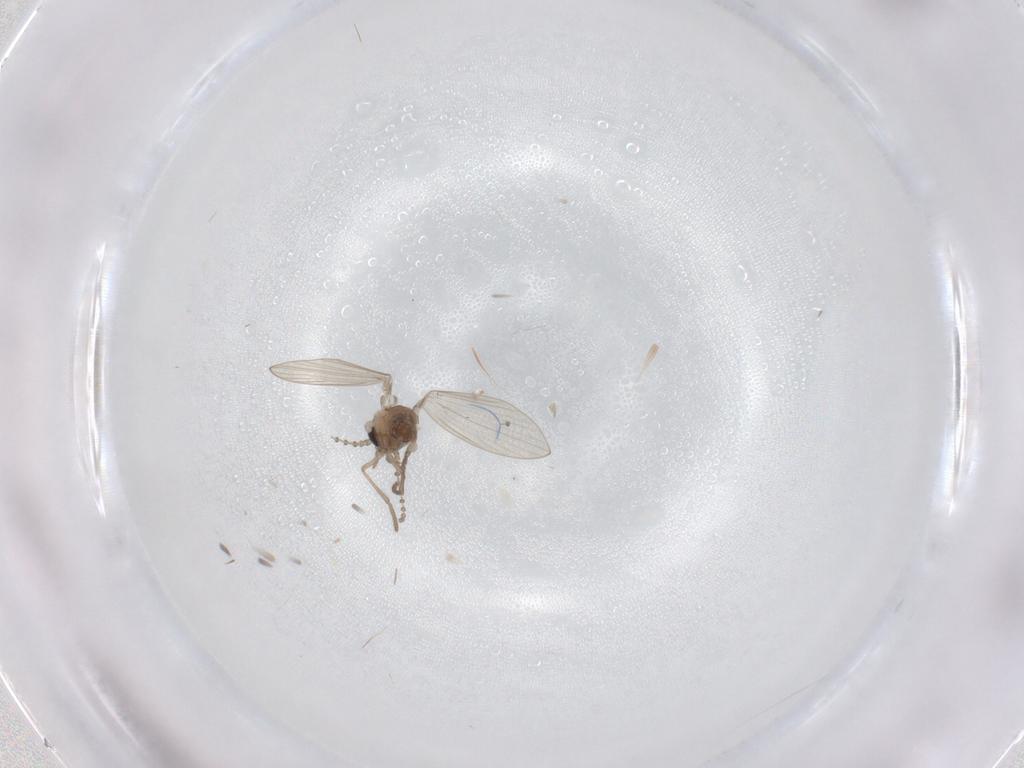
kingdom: Animalia
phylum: Arthropoda
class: Insecta
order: Diptera
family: Psychodidae
